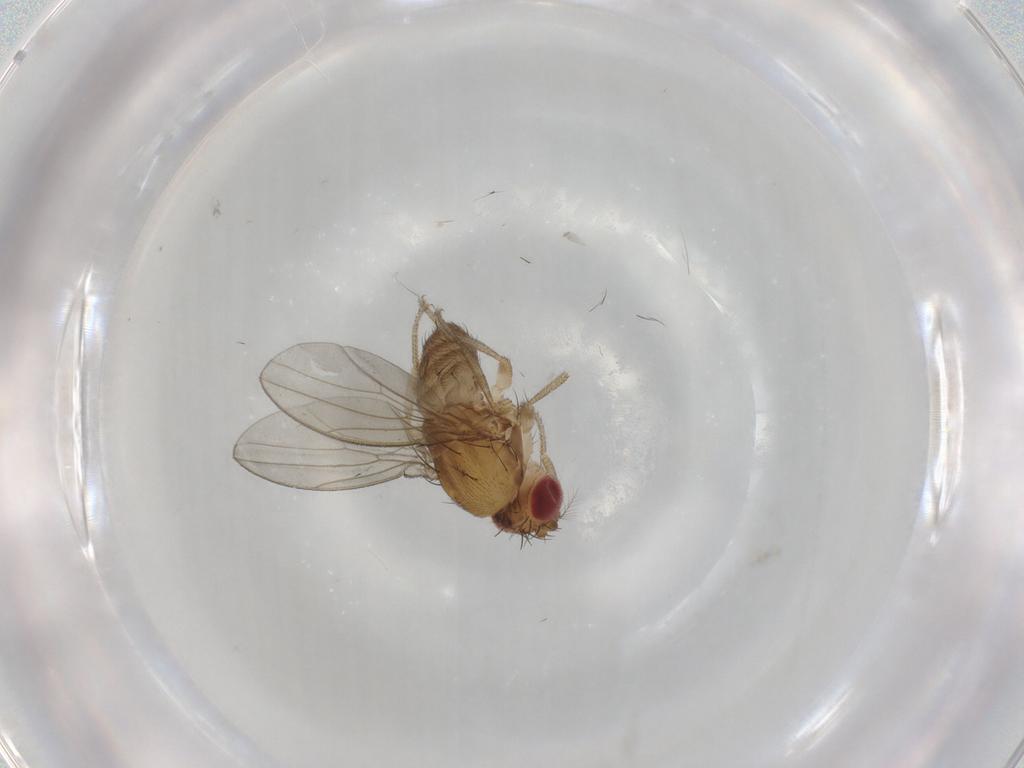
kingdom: Animalia
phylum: Arthropoda
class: Insecta
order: Diptera
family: Drosophilidae
